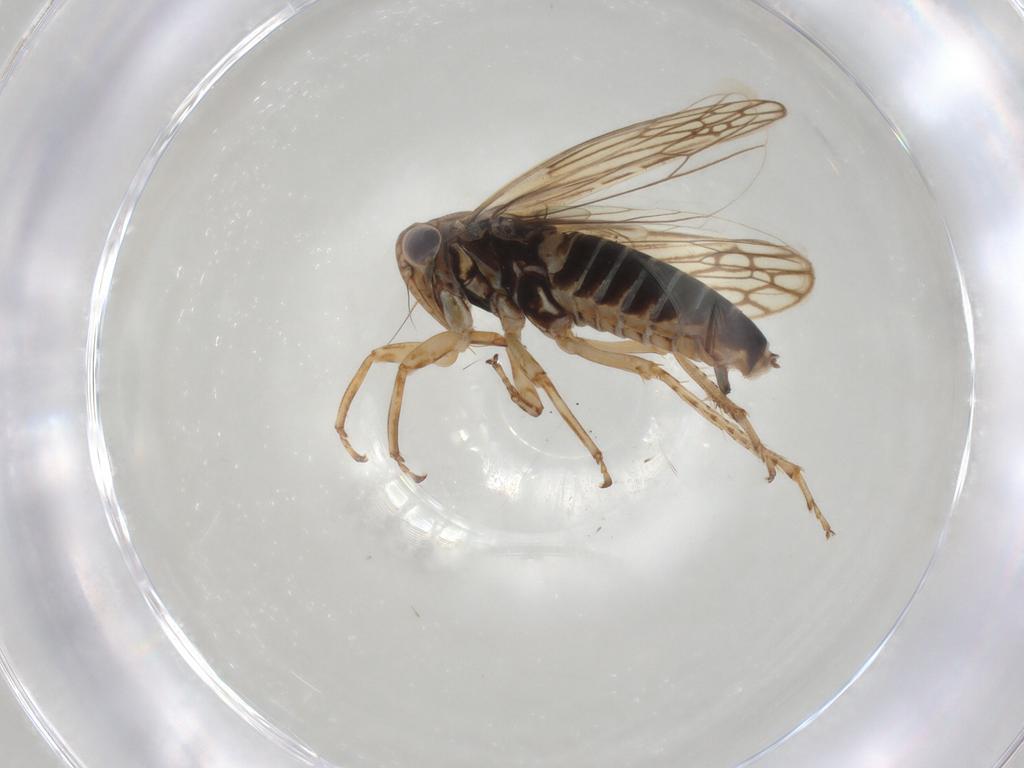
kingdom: Animalia
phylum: Arthropoda
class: Insecta
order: Hemiptera
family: Cicadellidae
